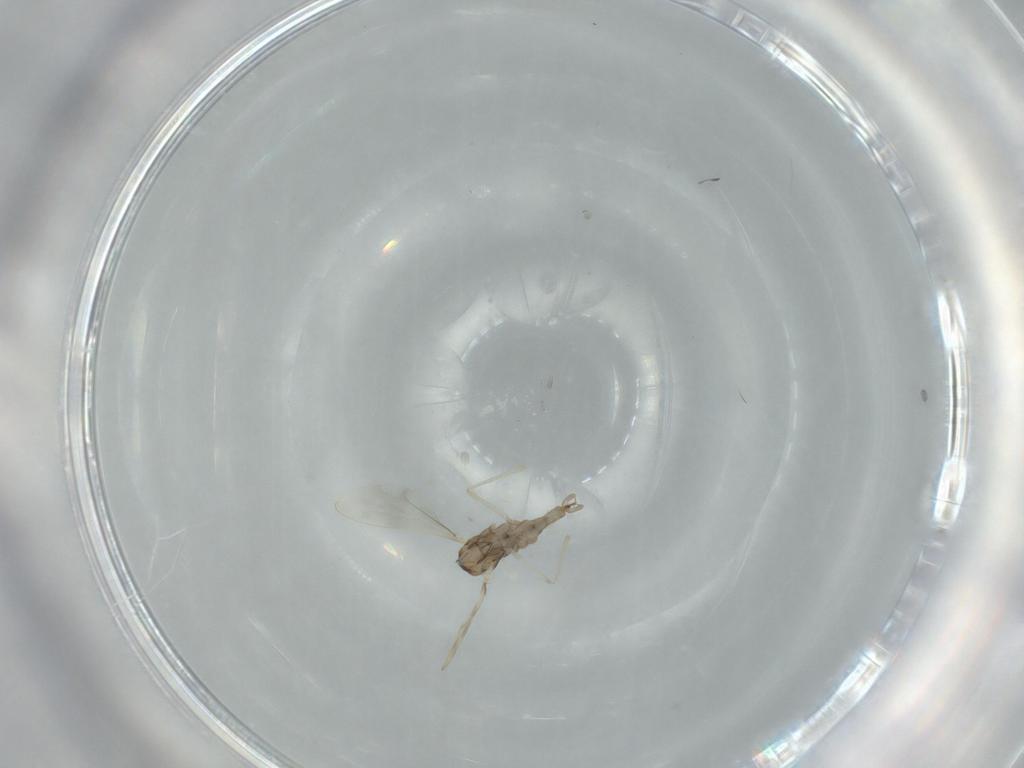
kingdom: Animalia
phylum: Arthropoda
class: Insecta
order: Diptera
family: Cecidomyiidae
